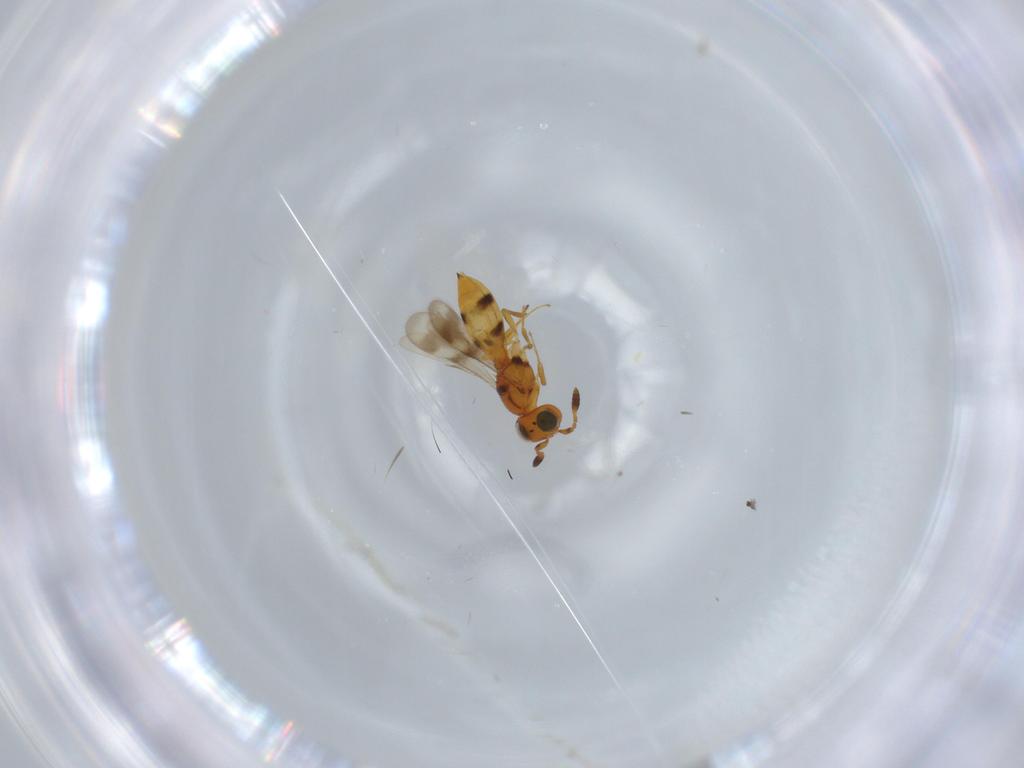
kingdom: Animalia
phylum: Arthropoda
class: Insecta
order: Hymenoptera
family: Scelionidae
